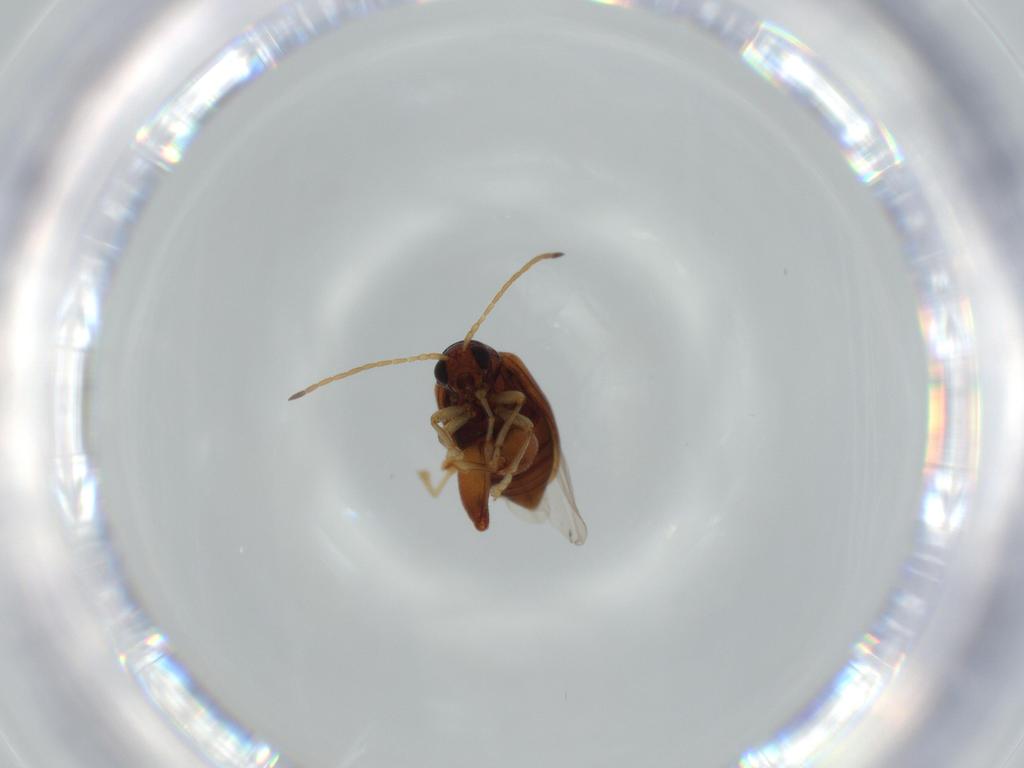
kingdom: Animalia
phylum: Arthropoda
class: Insecta
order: Coleoptera
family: Chrysomelidae
